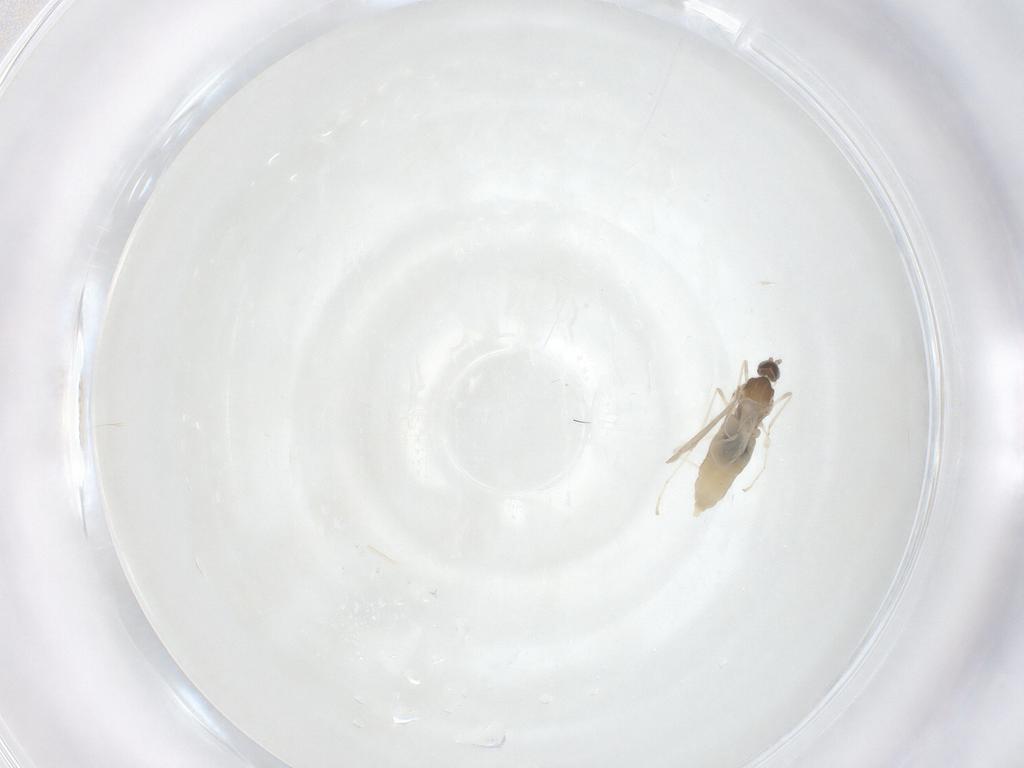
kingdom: Animalia
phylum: Arthropoda
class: Insecta
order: Diptera
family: Cecidomyiidae
